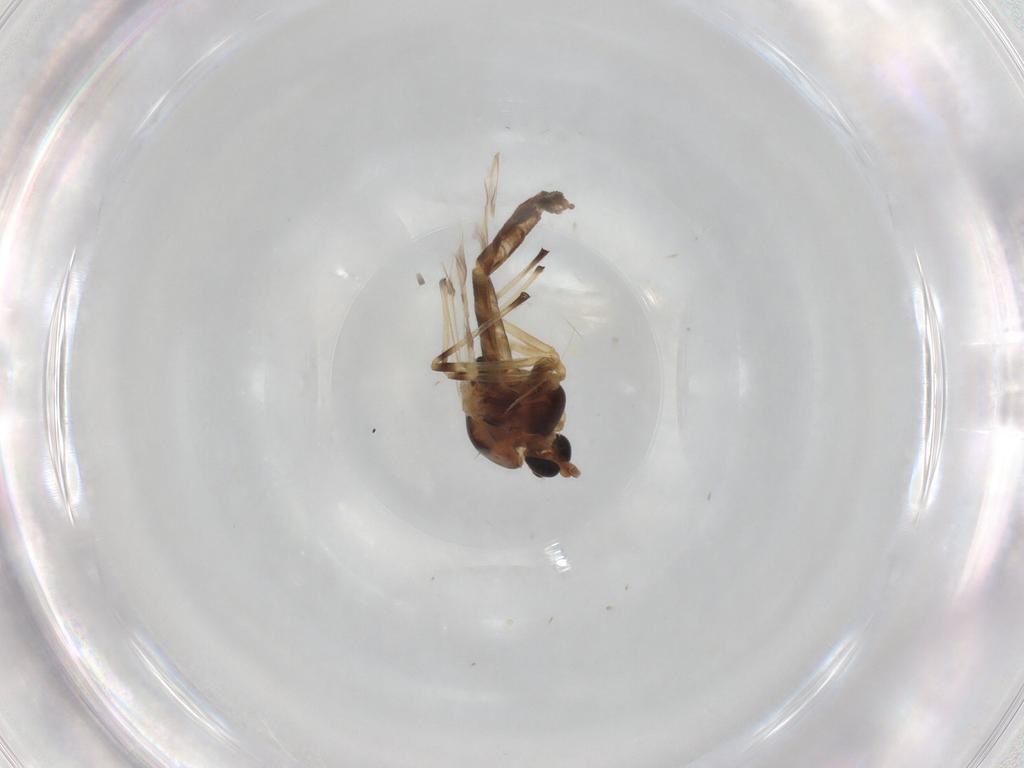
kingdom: Animalia
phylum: Arthropoda
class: Insecta
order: Diptera
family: Chironomidae
